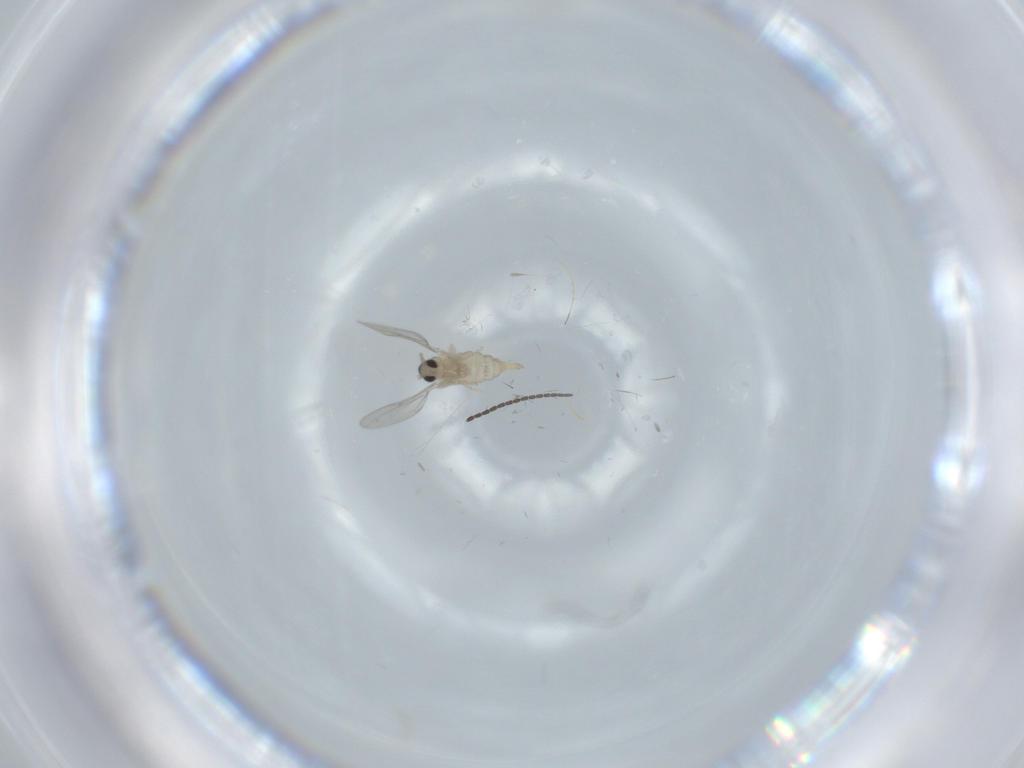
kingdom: Animalia
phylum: Arthropoda
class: Insecta
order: Diptera
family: Cecidomyiidae
